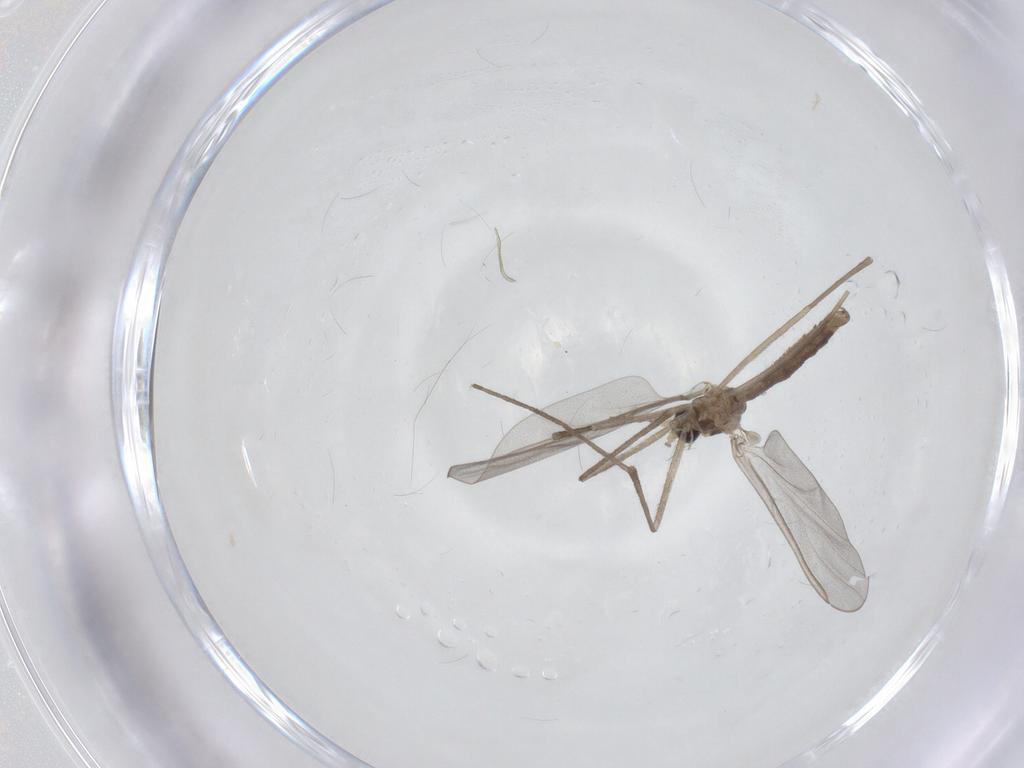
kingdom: Animalia
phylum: Arthropoda
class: Insecta
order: Diptera
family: Cecidomyiidae
